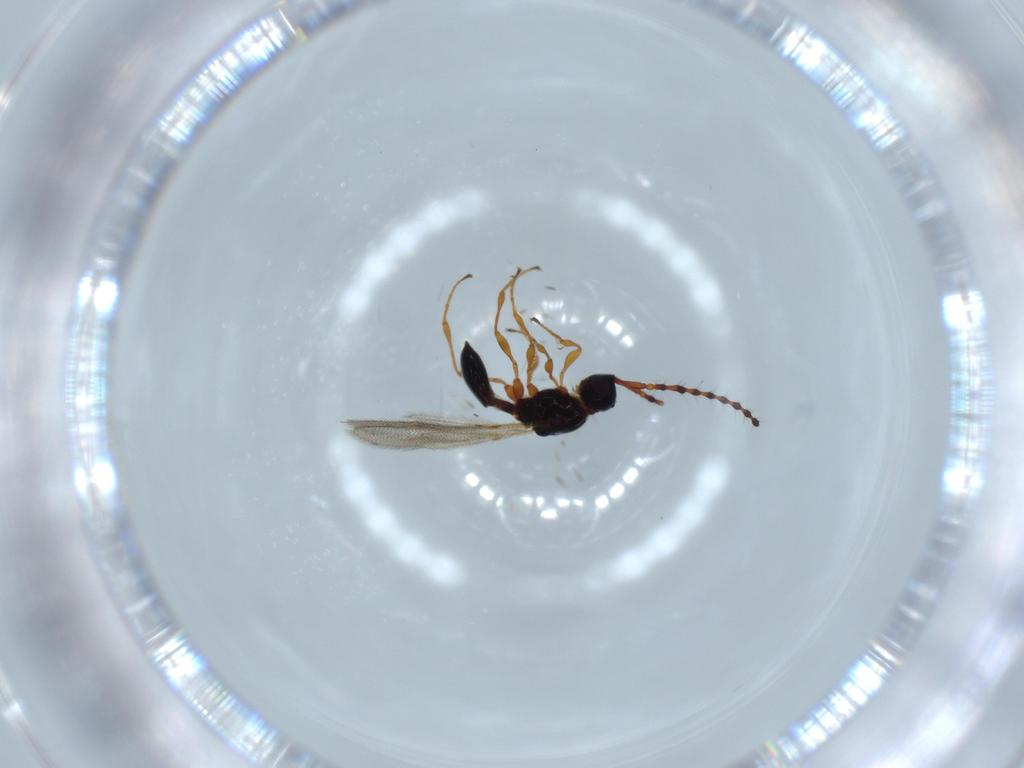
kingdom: Animalia
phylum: Arthropoda
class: Insecta
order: Hymenoptera
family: Diapriidae
